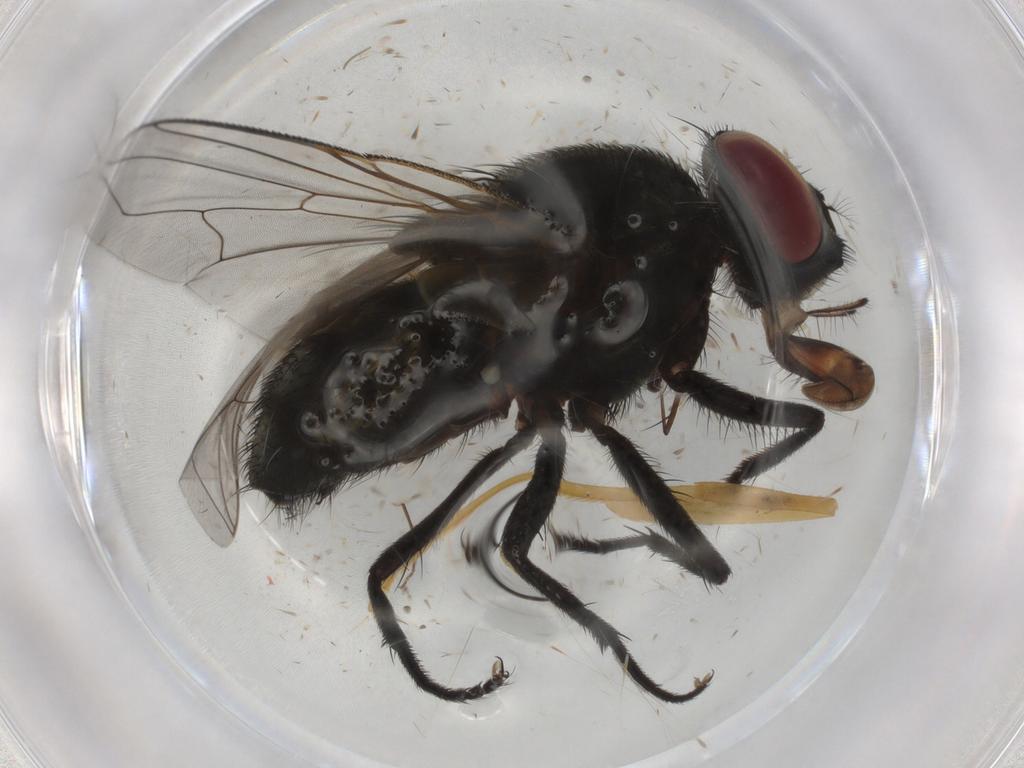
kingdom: Animalia
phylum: Arthropoda
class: Insecta
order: Diptera
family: Muscidae
